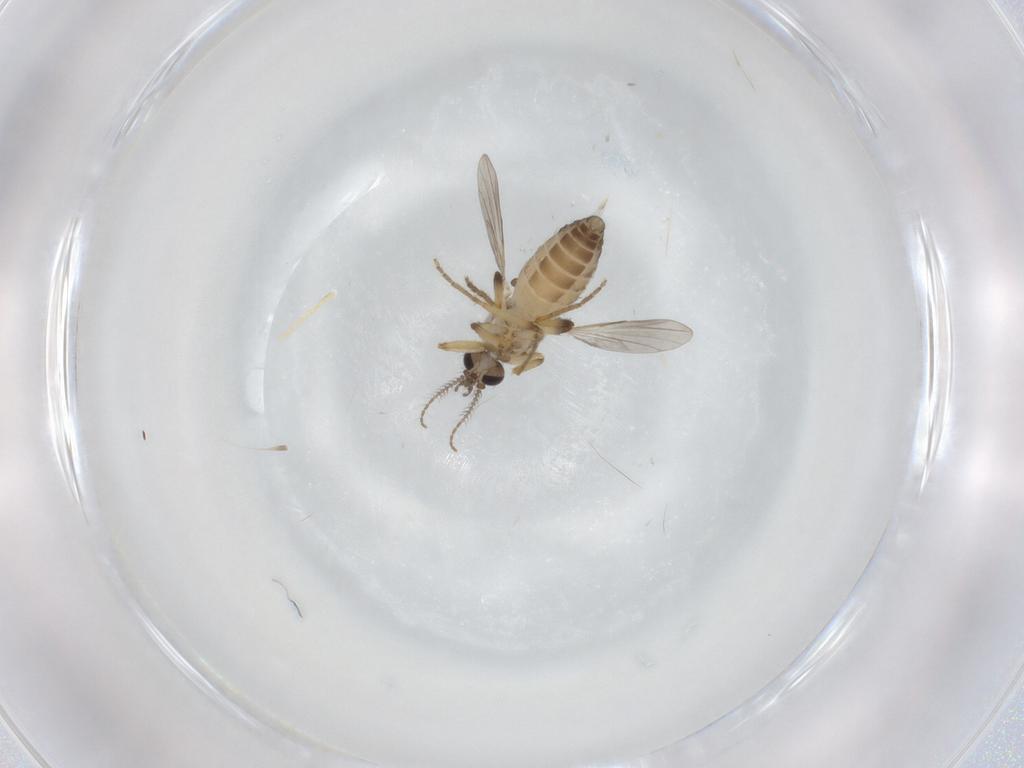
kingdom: Animalia
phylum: Arthropoda
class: Insecta
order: Diptera
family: Ceratopogonidae
